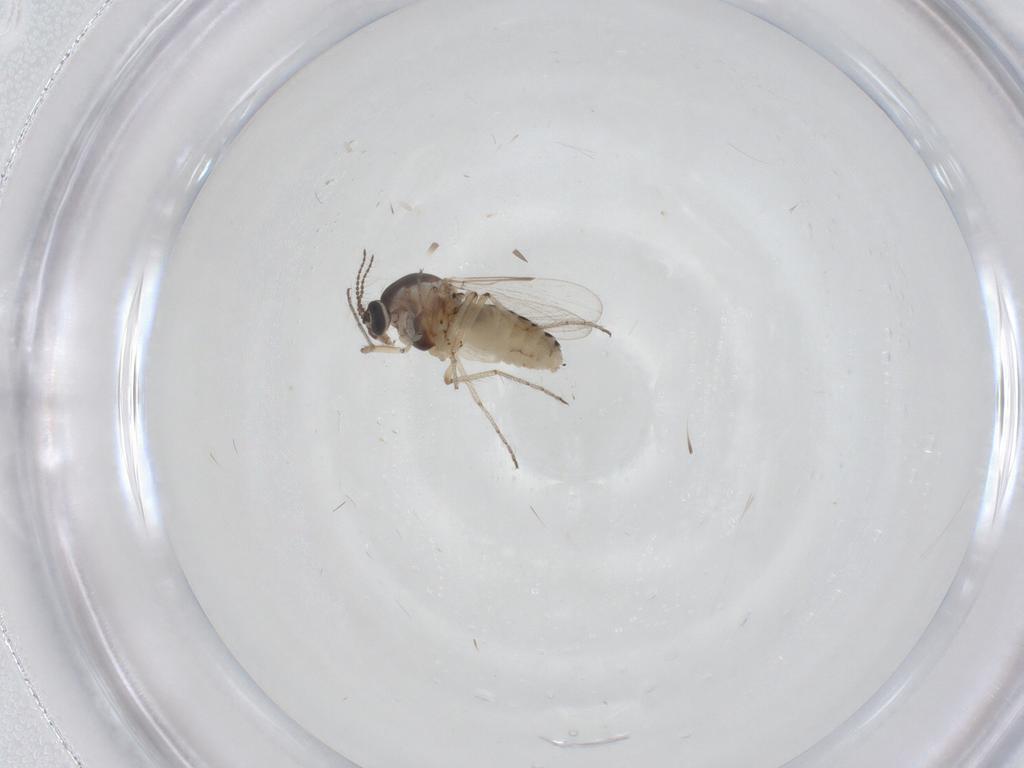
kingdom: Animalia
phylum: Arthropoda
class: Insecta
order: Diptera
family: Ceratopogonidae
